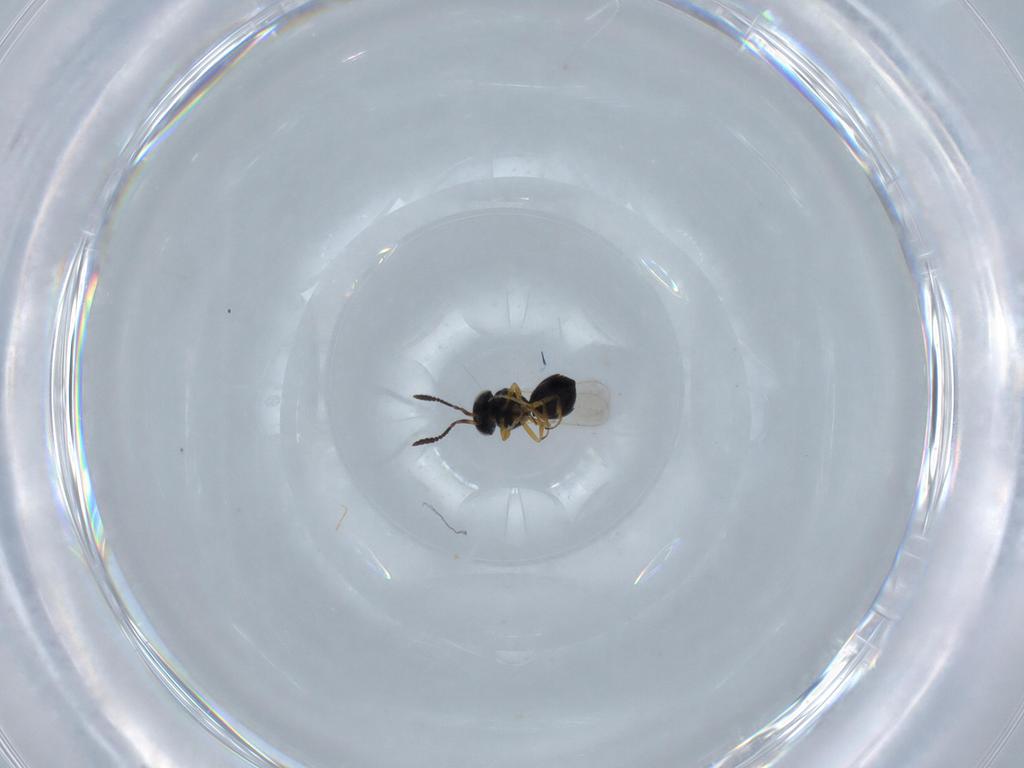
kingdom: Animalia
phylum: Arthropoda
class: Insecta
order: Hymenoptera
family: Scelionidae
